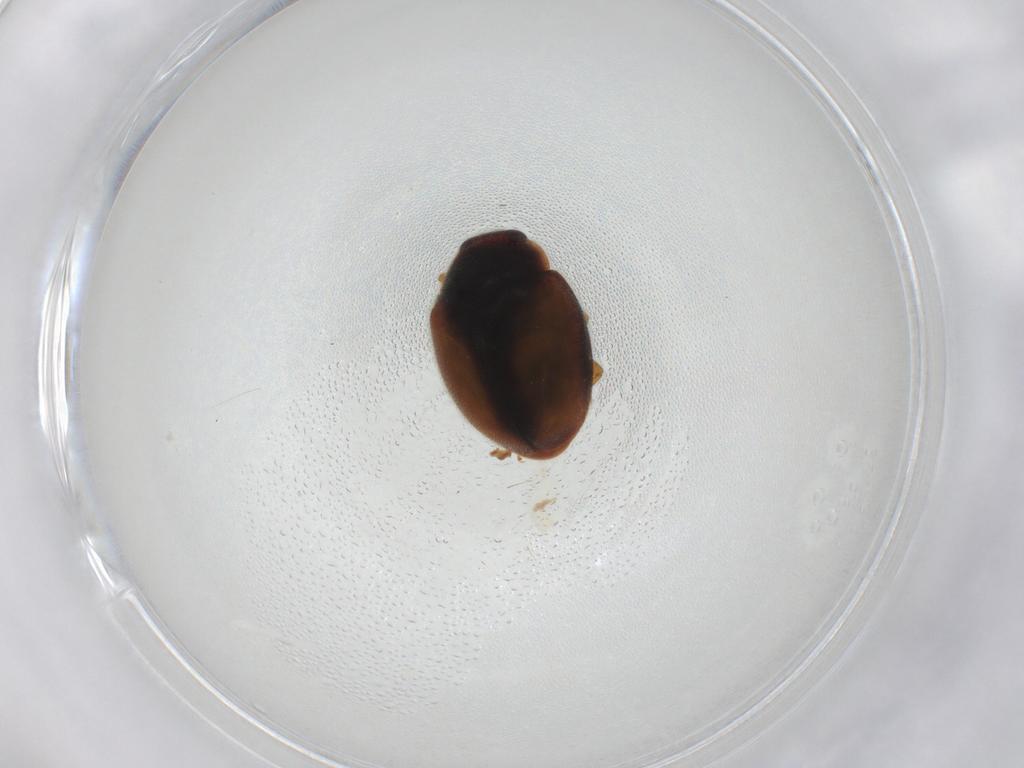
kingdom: Animalia
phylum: Arthropoda
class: Insecta
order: Coleoptera
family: Coccinellidae
